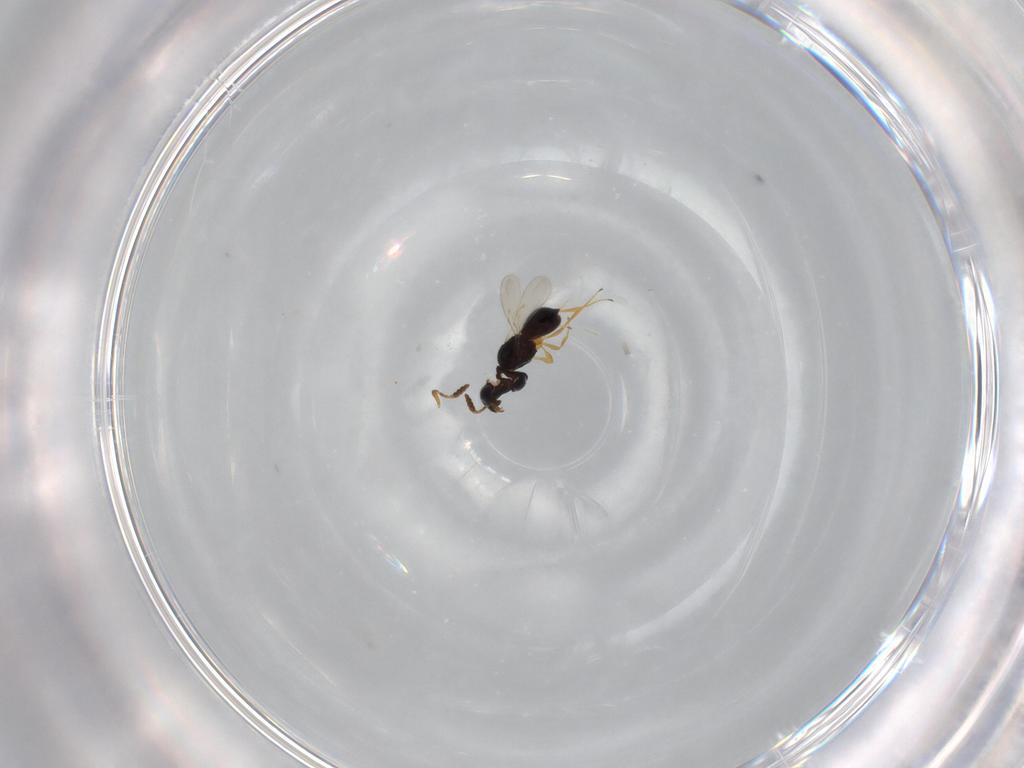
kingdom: Animalia
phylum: Arthropoda
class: Insecta
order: Hymenoptera
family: Scelionidae
